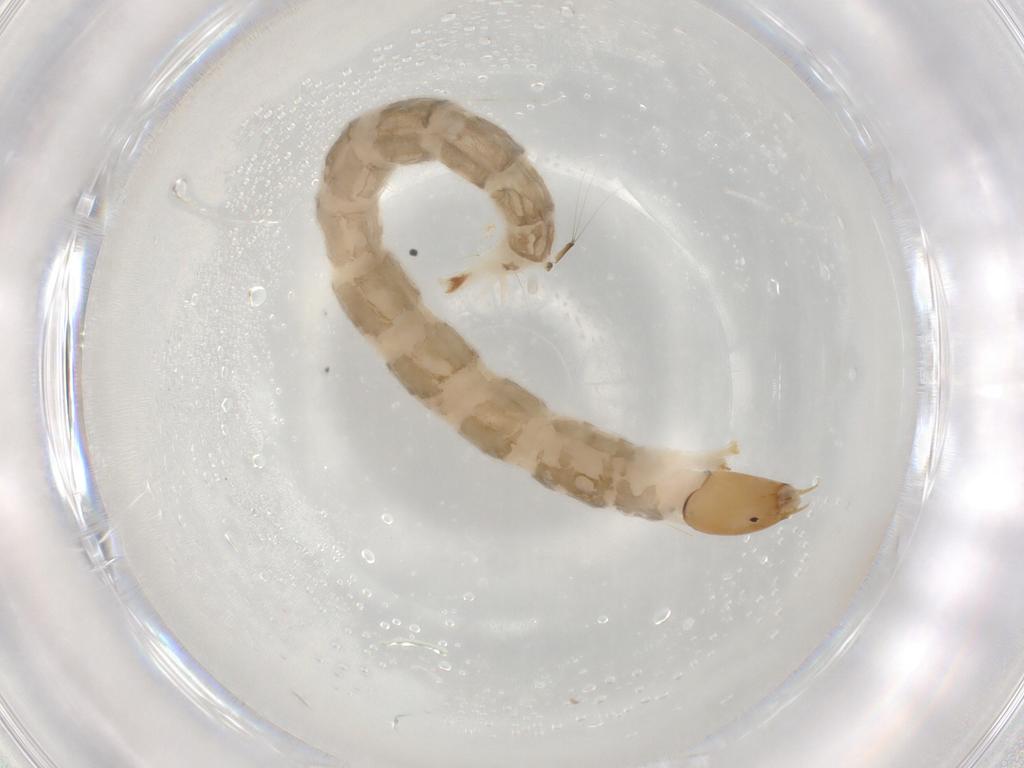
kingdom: Animalia
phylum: Arthropoda
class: Insecta
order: Diptera
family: Chironomidae
